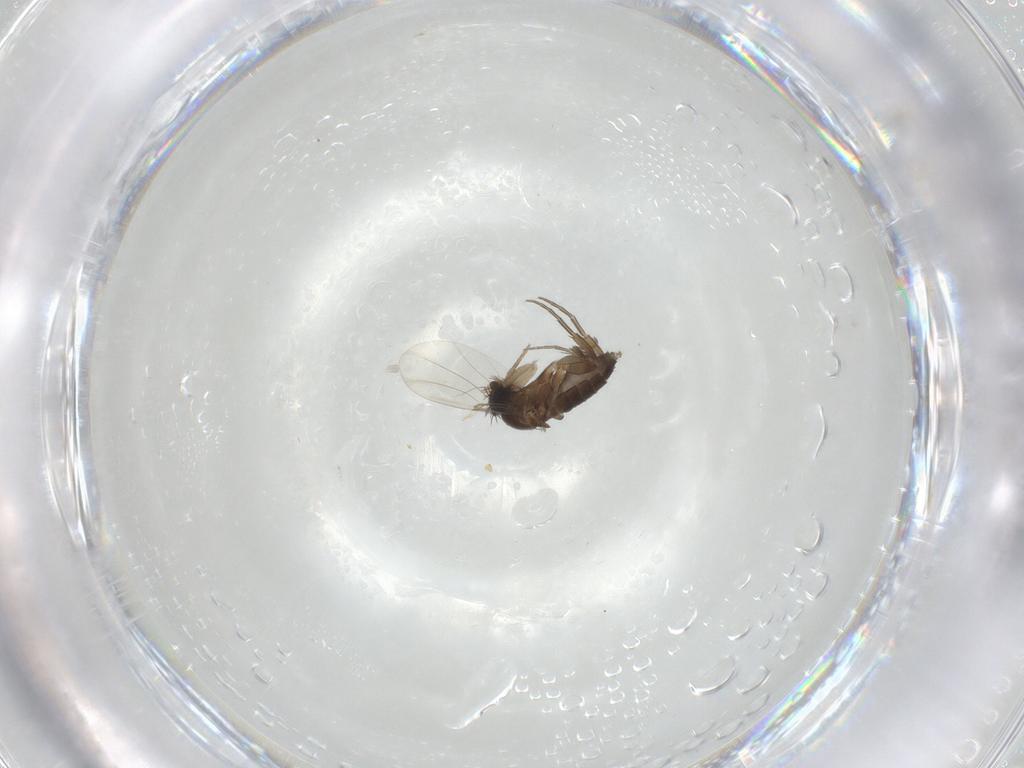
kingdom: Animalia
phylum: Arthropoda
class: Insecta
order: Diptera
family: Phoridae
